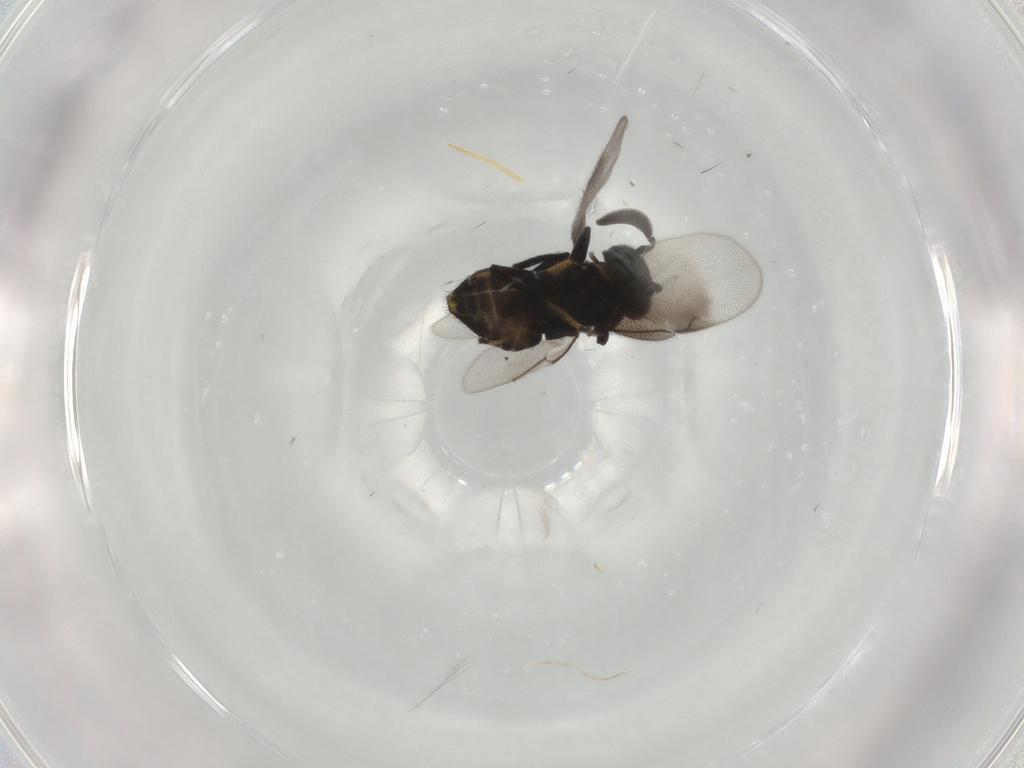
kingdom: Animalia
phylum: Arthropoda
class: Insecta
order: Hymenoptera
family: Encyrtidae
